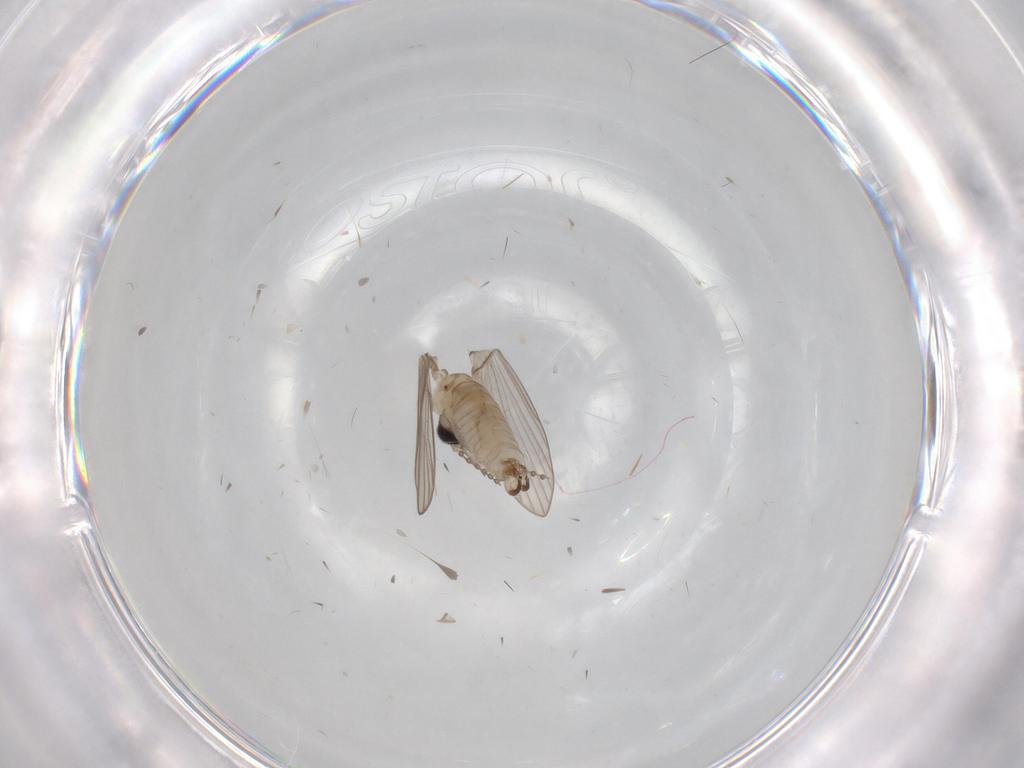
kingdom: Animalia
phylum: Arthropoda
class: Insecta
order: Diptera
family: Psychodidae
